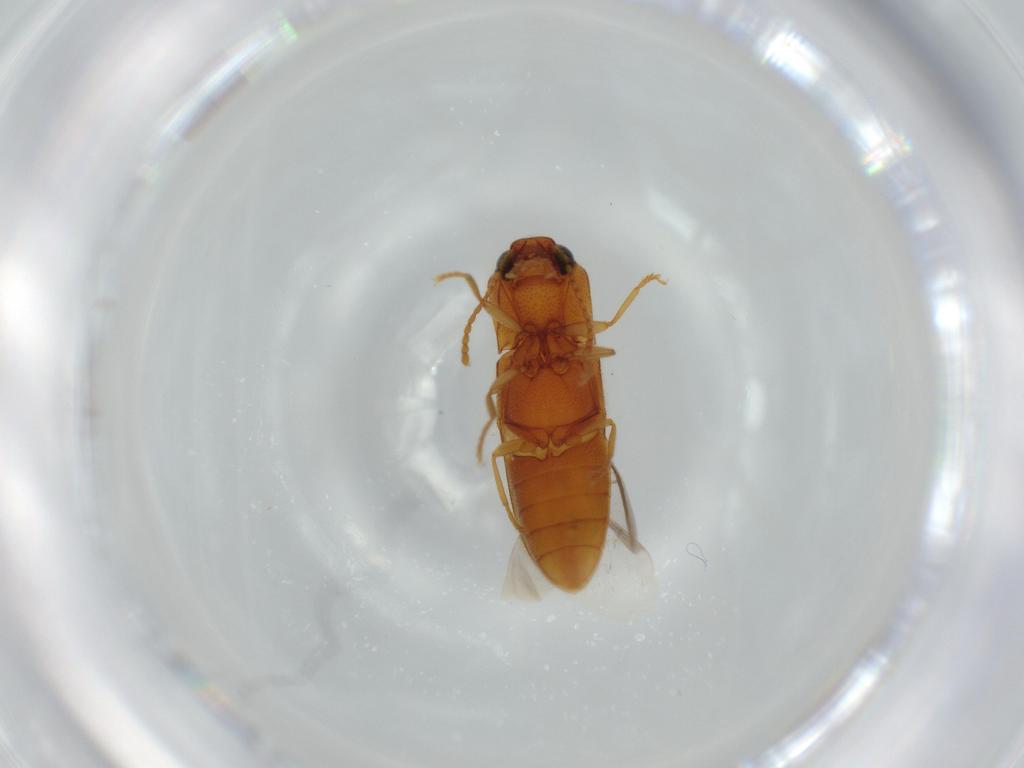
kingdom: Animalia
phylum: Arthropoda
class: Insecta
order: Coleoptera
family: Elateridae
